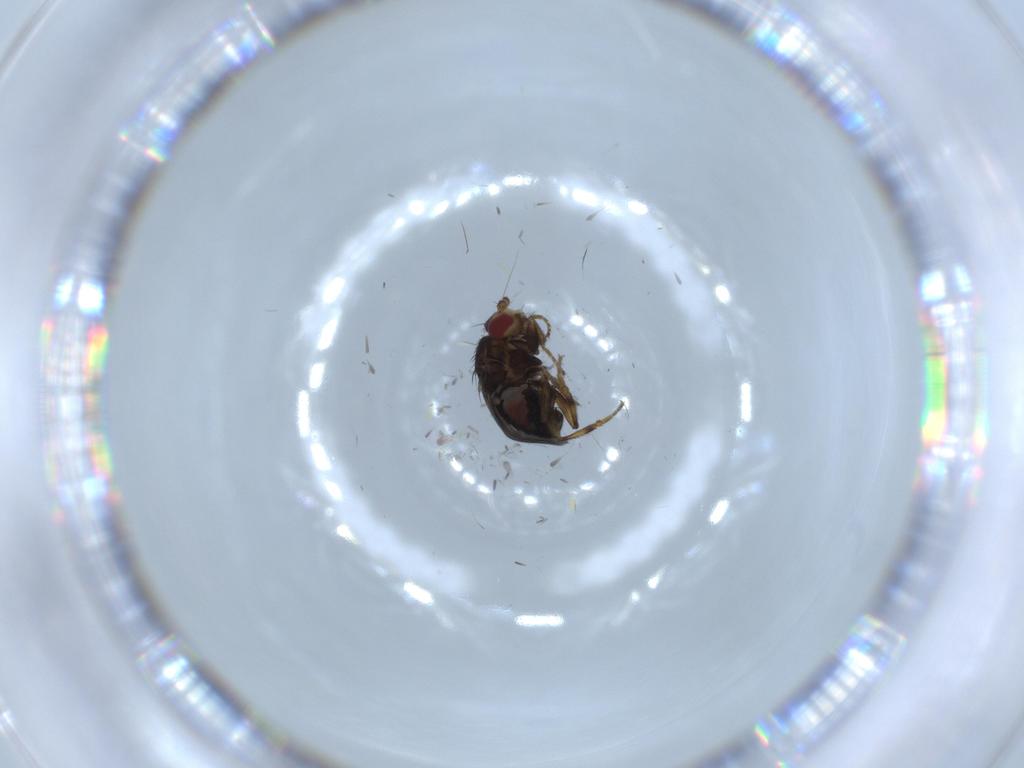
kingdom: Animalia
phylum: Arthropoda
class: Insecta
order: Diptera
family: Sphaeroceridae
